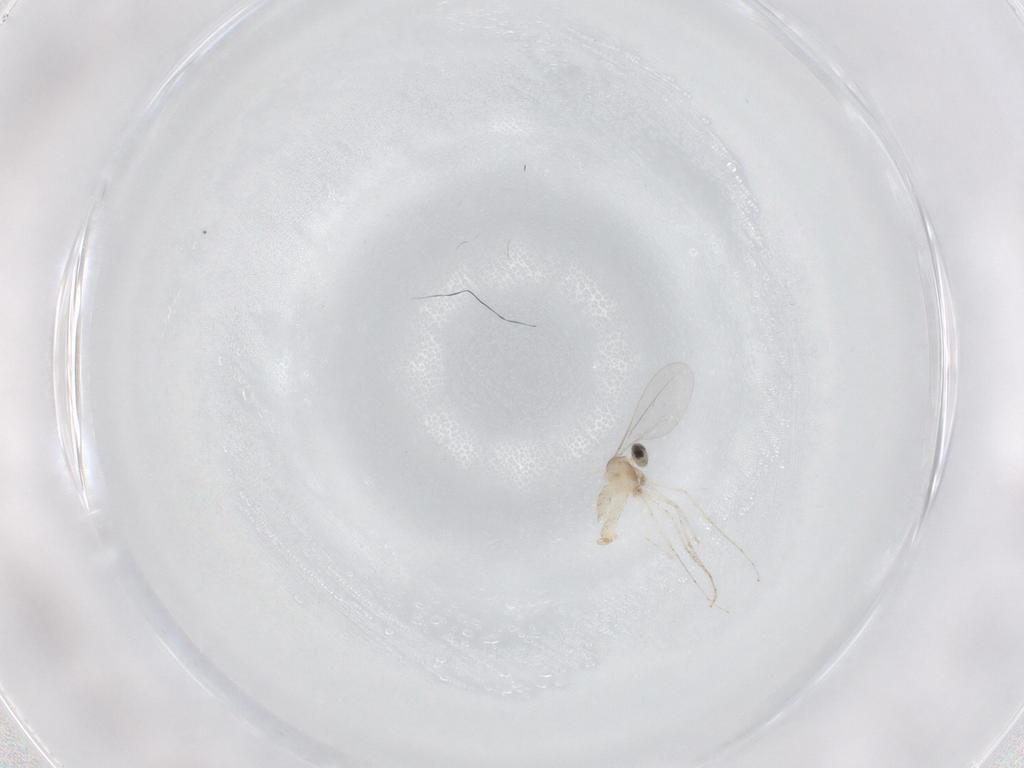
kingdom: Animalia
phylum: Arthropoda
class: Insecta
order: Diptera
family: Cecidomyiidae
